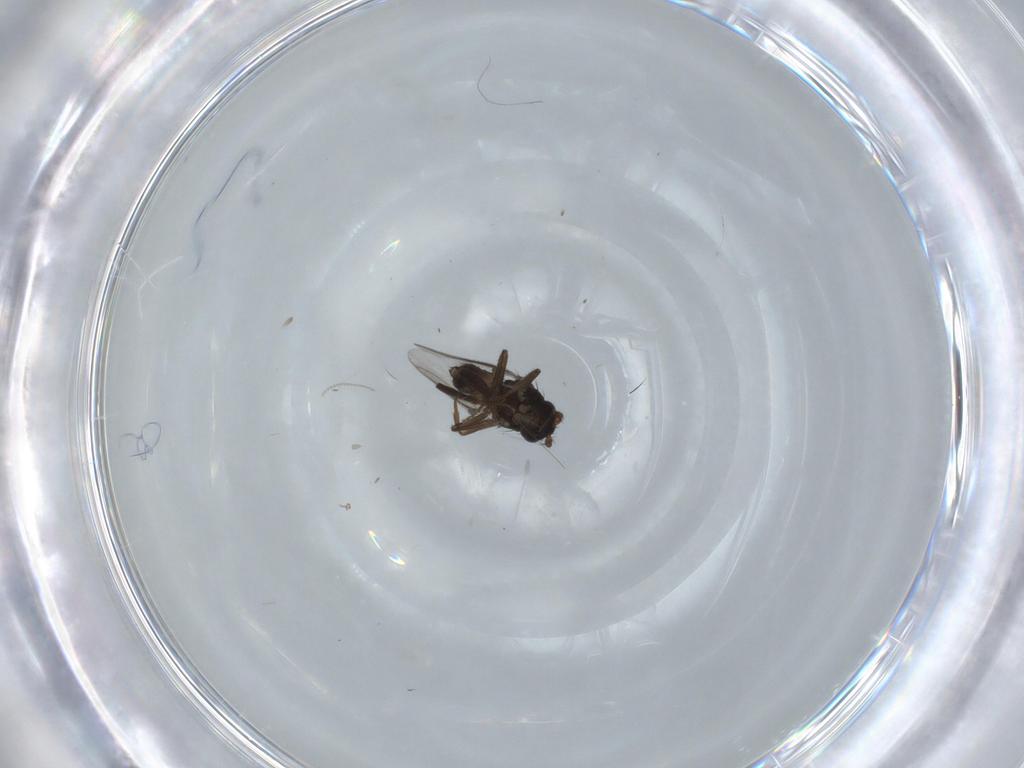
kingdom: Animalia
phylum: Arthropoda
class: Insecta
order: Diptera
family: Sphaeroceridae
